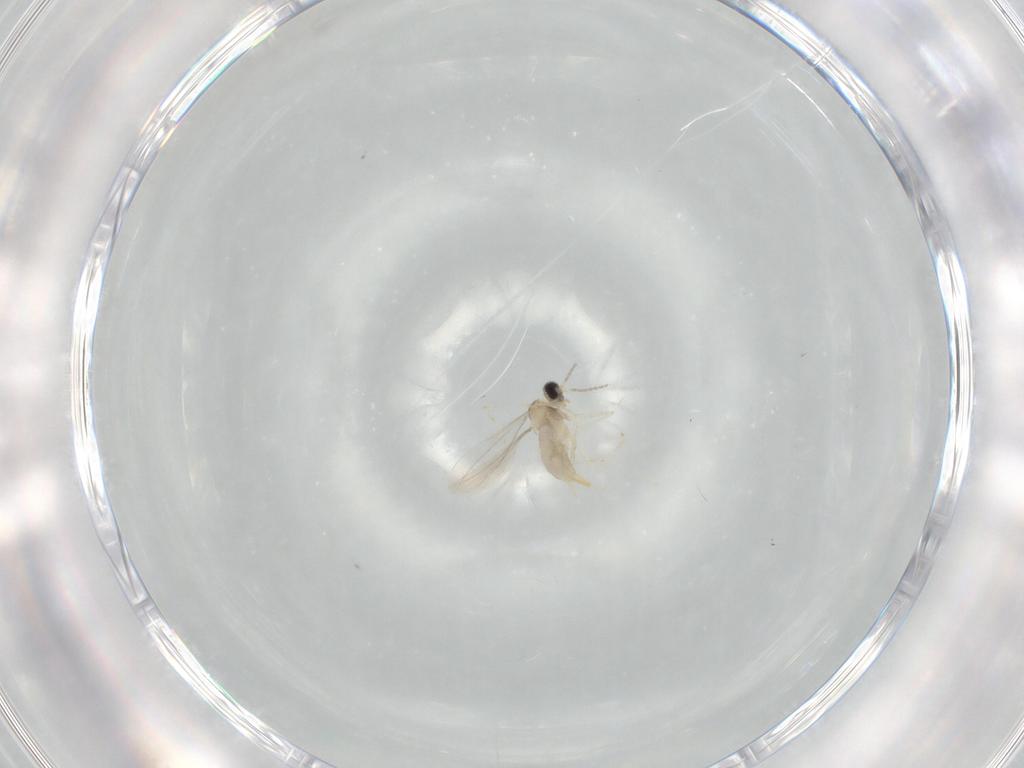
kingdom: Animalia
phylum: Arthropoda
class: Insecta
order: Diptera
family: Cecidomyiidae
